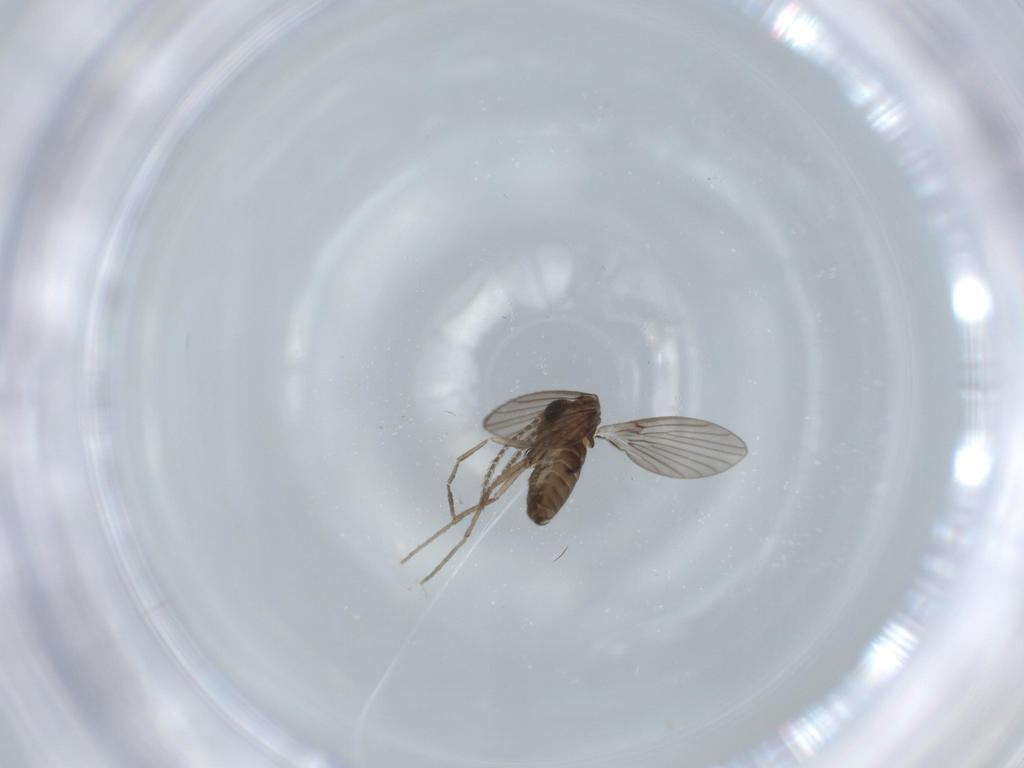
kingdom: Animalia
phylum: Arthropoda
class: Insecta
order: Diptera
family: Psychodidae
